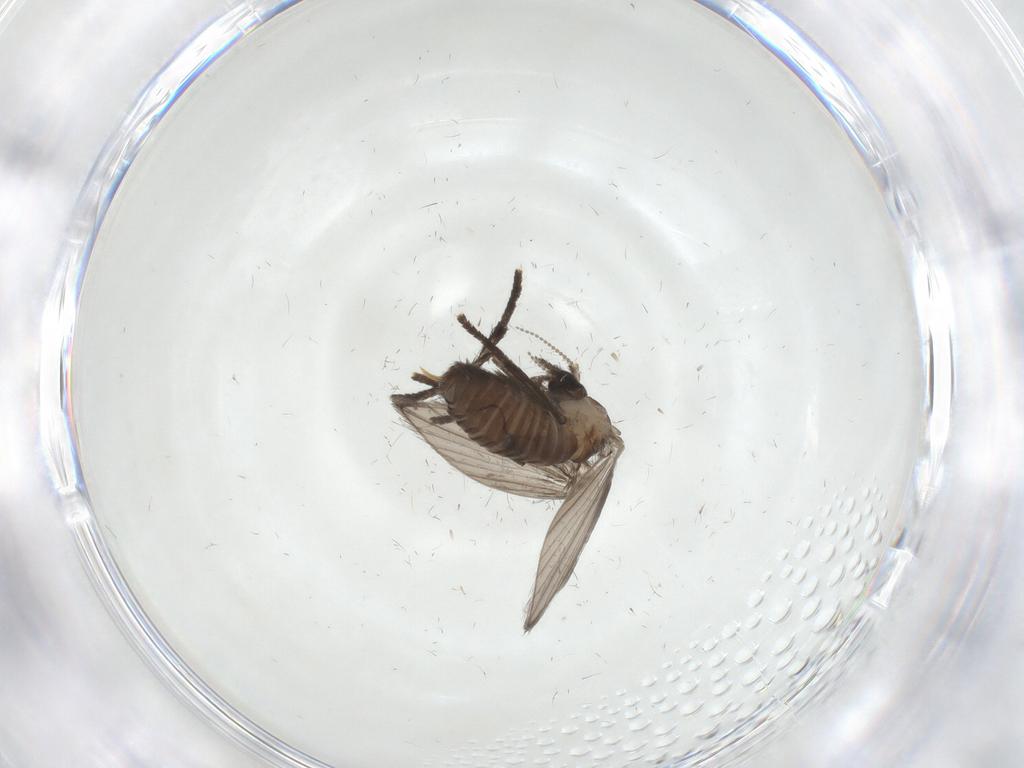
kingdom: Animalia
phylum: Arthropoda
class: Insecta
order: Diptera
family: Psychodidae
